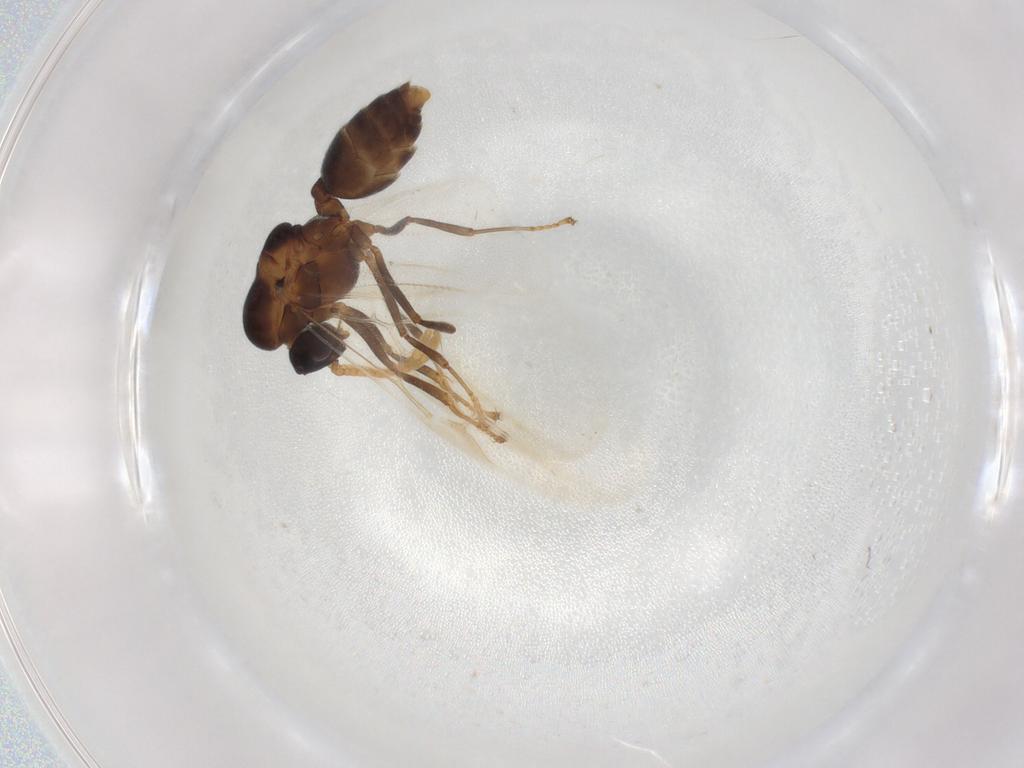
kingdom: Animalia
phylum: Arthropoda
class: Insecta
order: Hymenoptera
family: Formicidae
